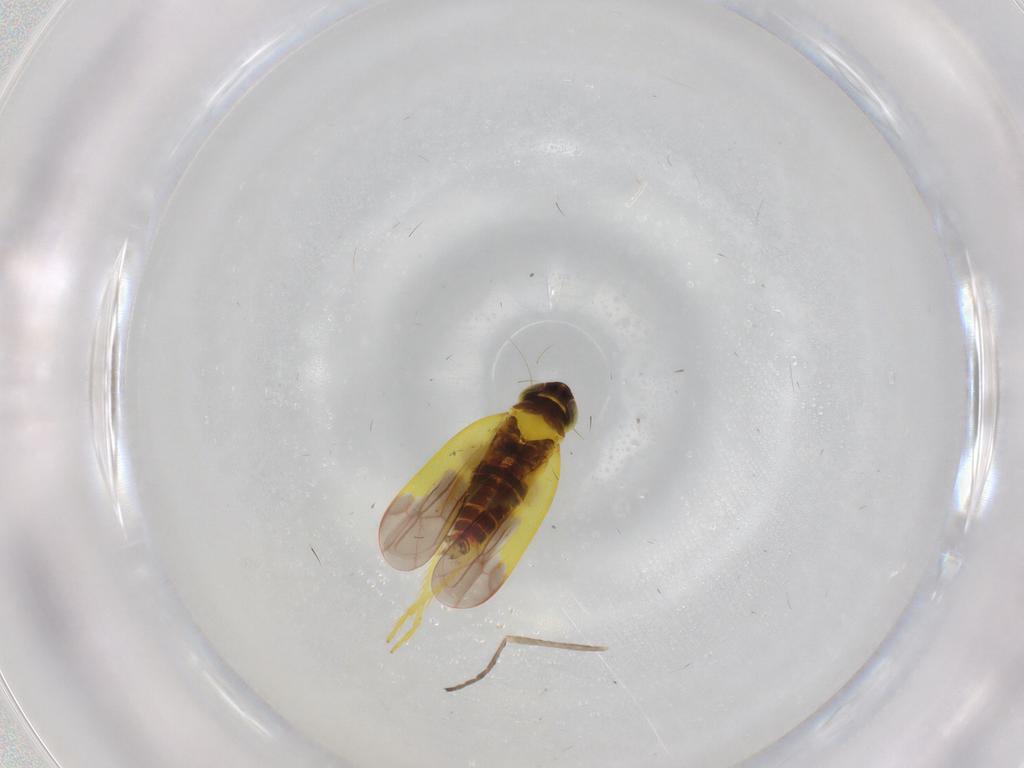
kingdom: Animalia
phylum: Arthropoda
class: Insecta
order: Hemiptera
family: Cicadellidae
